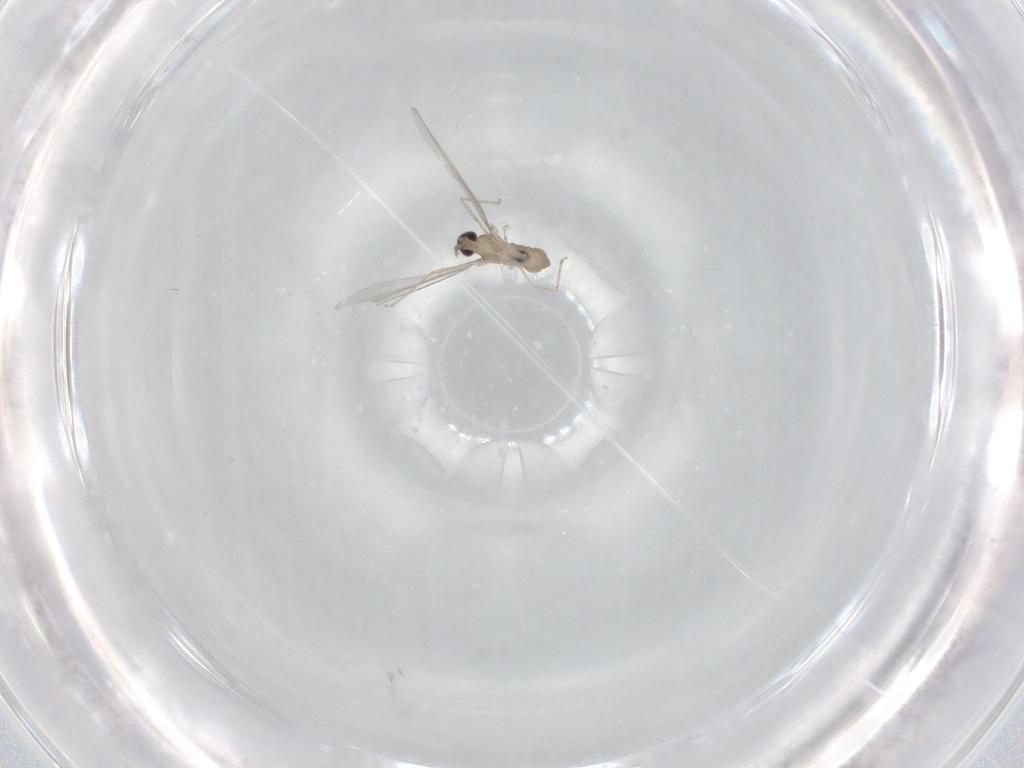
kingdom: Animalia
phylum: Arthropoda
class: Insecta
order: Diptera
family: Cecidomyiidae
